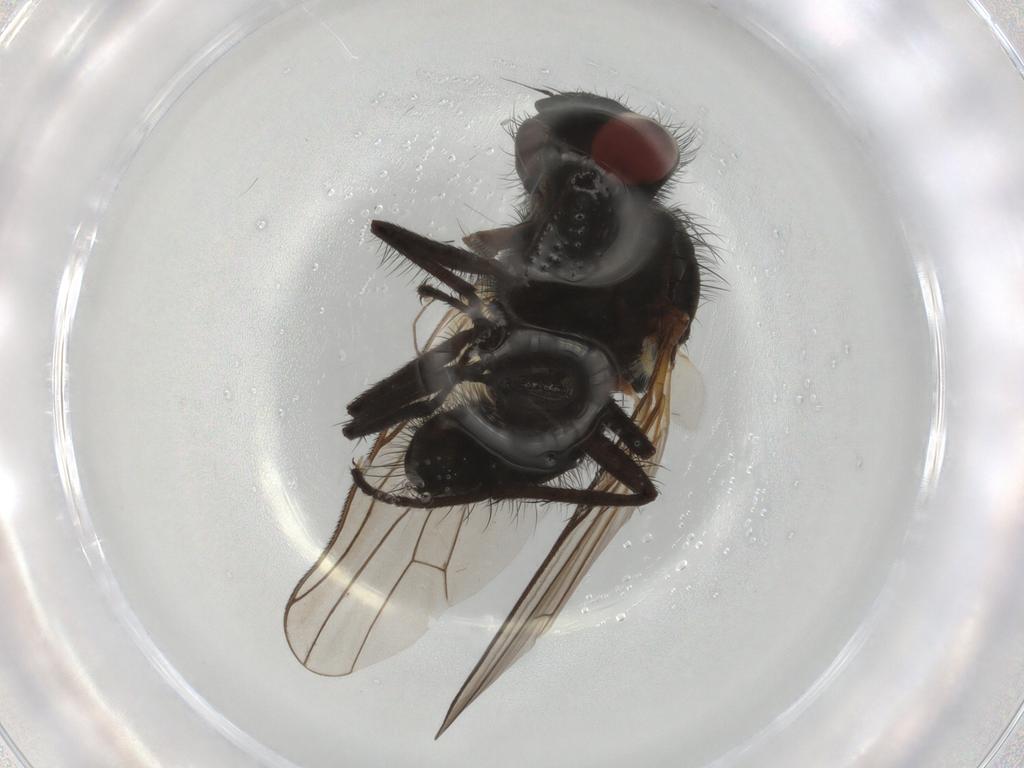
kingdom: Animalia
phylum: Arthropoda
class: Insecta
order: Diptera
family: Anthomyiidae
